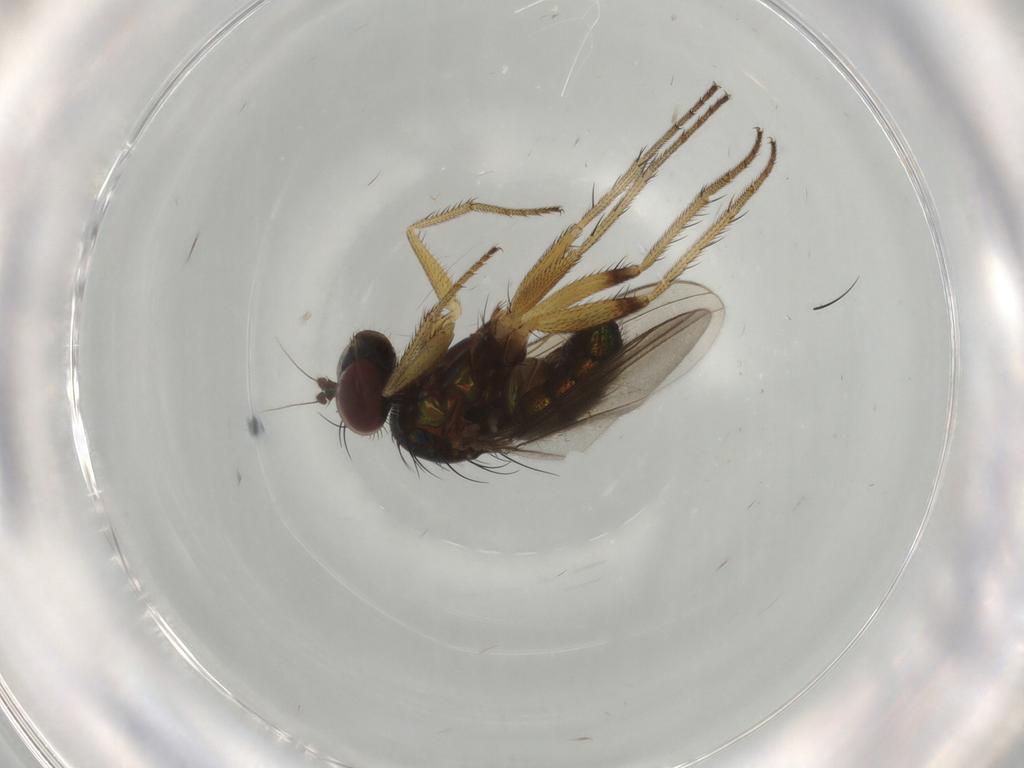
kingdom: Animalia
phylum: Arthropoda
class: Insecta
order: Diptera
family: Dolichopodidae
